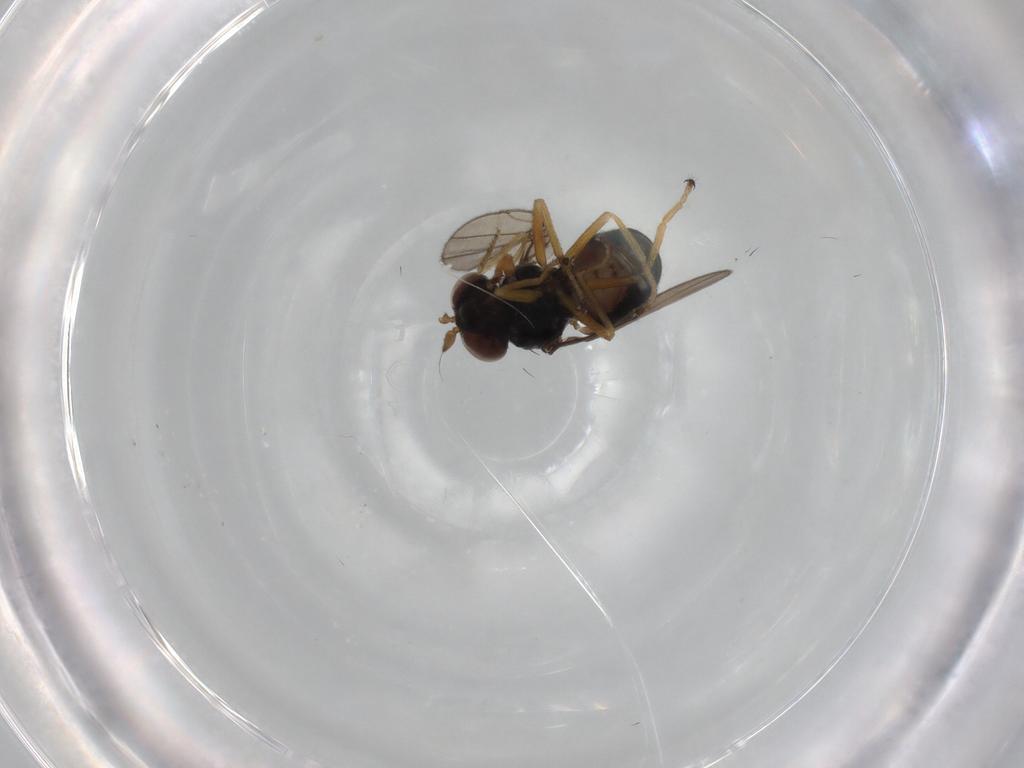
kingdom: Animalia
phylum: Arthropoda
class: Insecta
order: Diptera
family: Ephydridae
